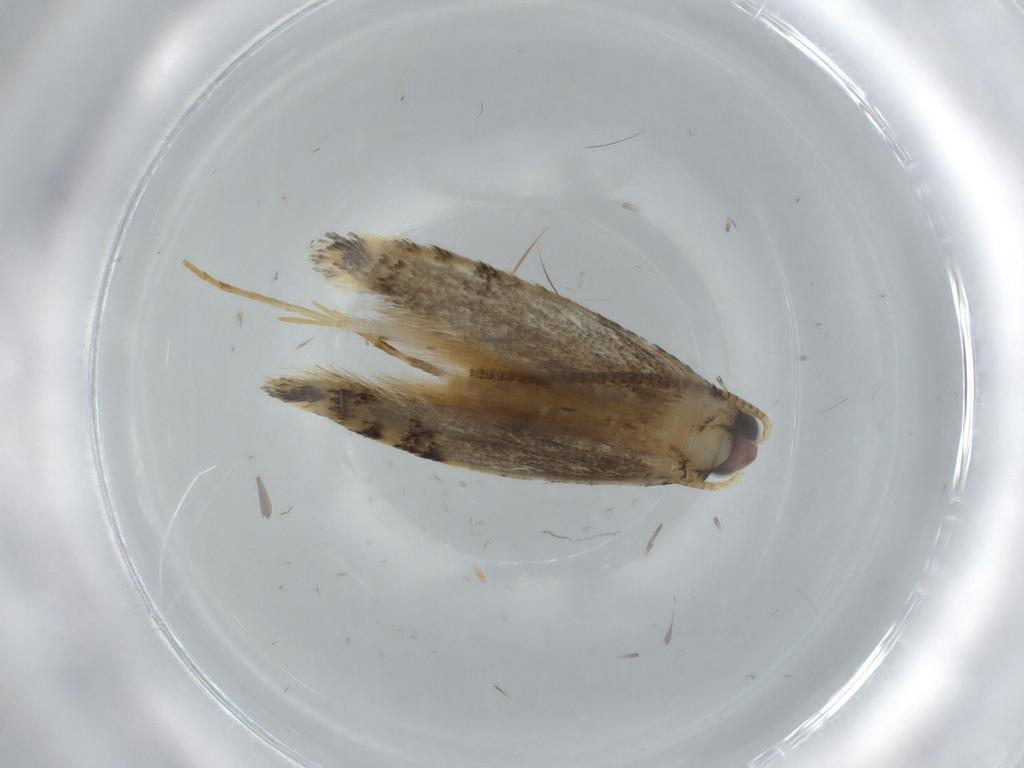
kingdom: Animalia
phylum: Arthropoda
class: Insecta
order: Lepidoptera
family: Tineidae
